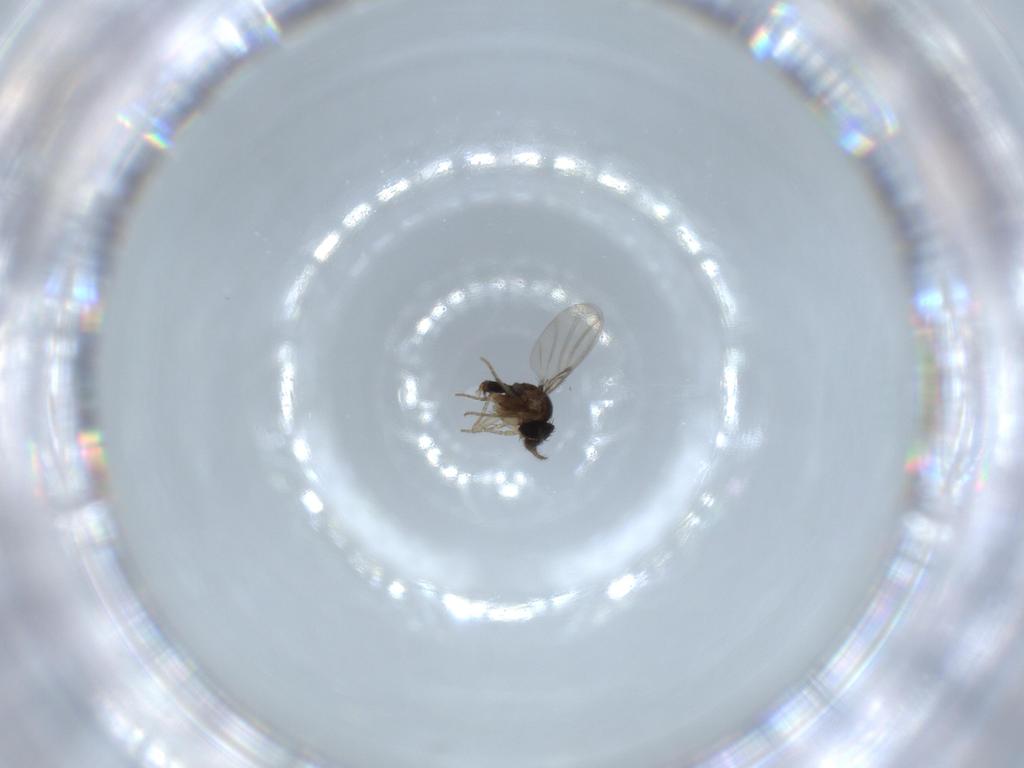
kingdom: Animalia
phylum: Arthropoda
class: Insecta
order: Diptera
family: Phoridae
